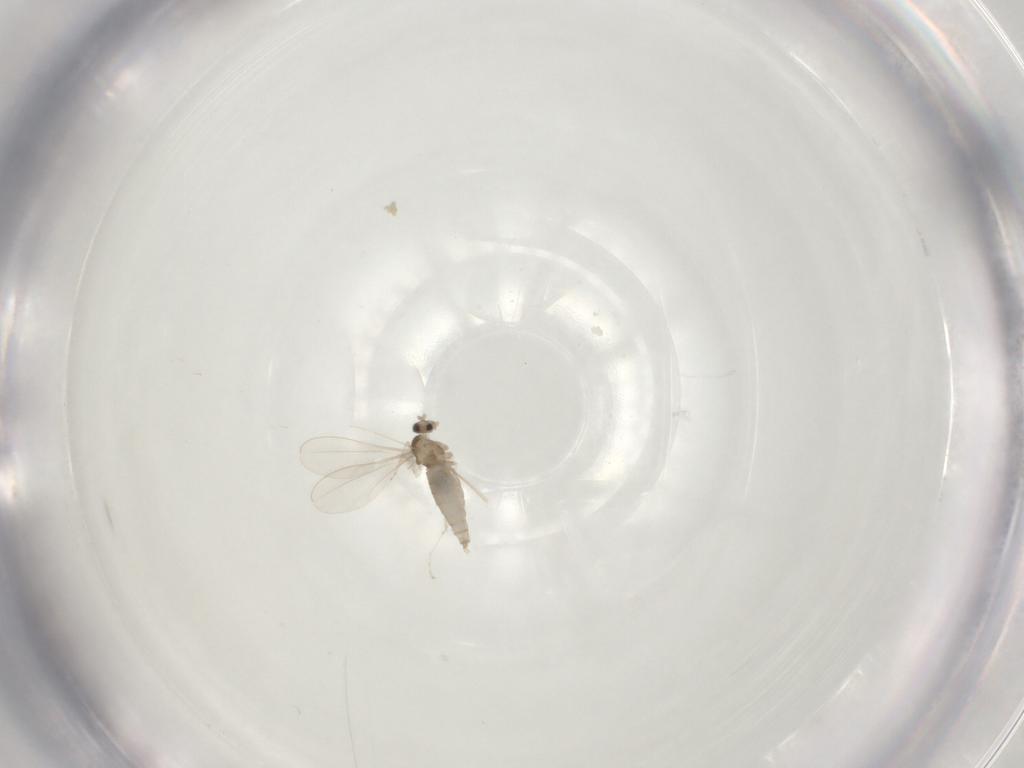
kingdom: Animalia
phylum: Arthropoda
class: Insecta
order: Diptera
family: Cecidomyiidae
